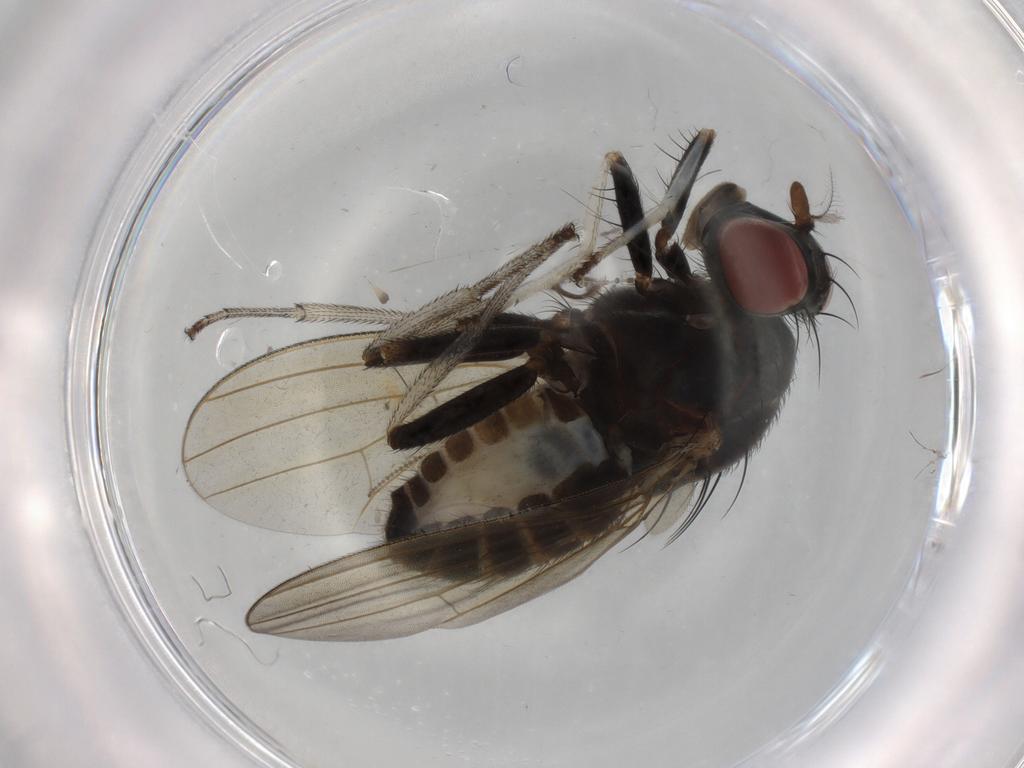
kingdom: Animalia
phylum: Arthropoda
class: Insecta
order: Diptera
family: Cecidomyiidae
